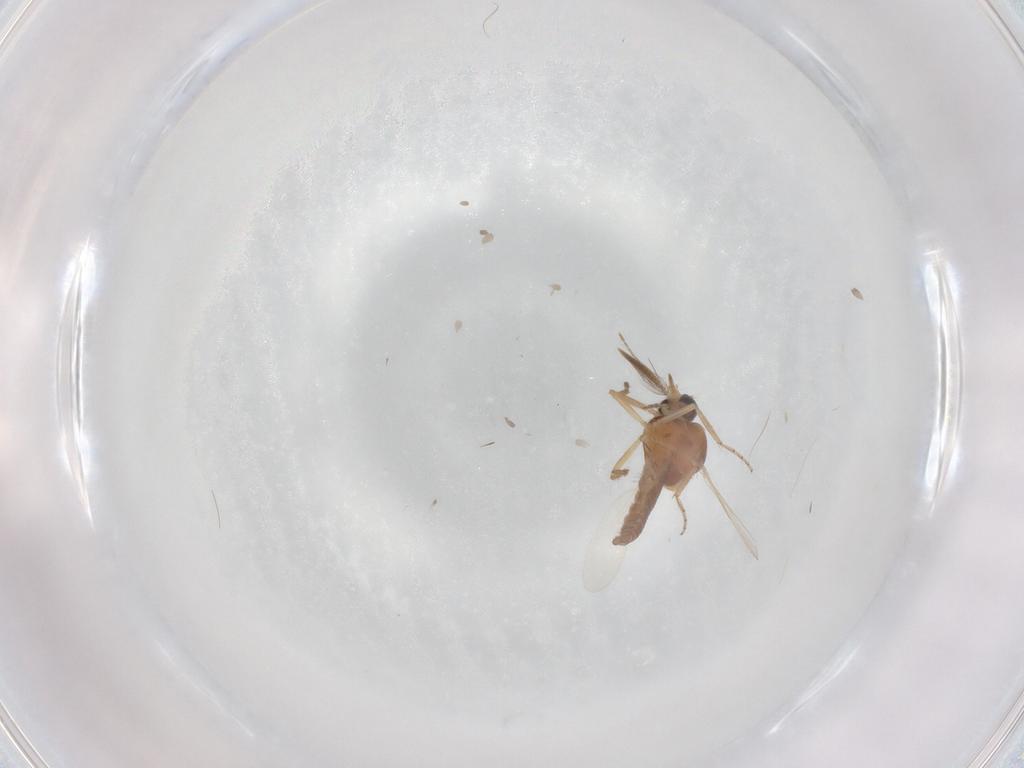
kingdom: Animalia
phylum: Arthropoda
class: Insecta
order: Diptera
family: Ceratopogonidae
